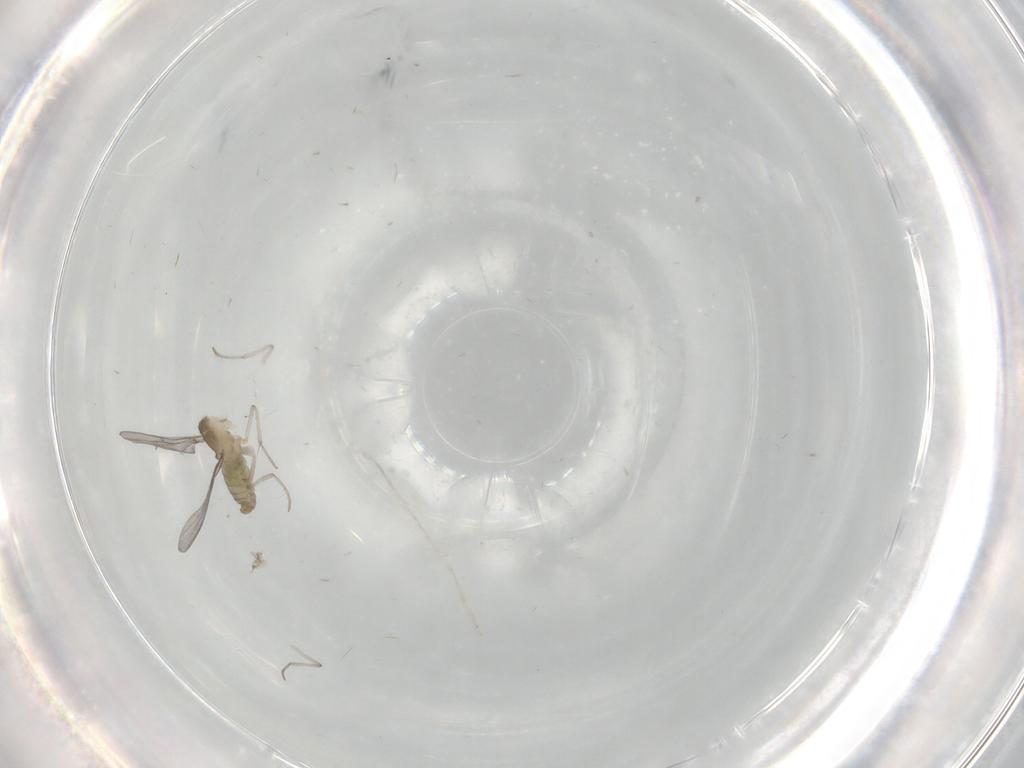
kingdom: Animalia
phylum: Arthropoda
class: Insecta
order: Diptera
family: Cecidomyiidae
